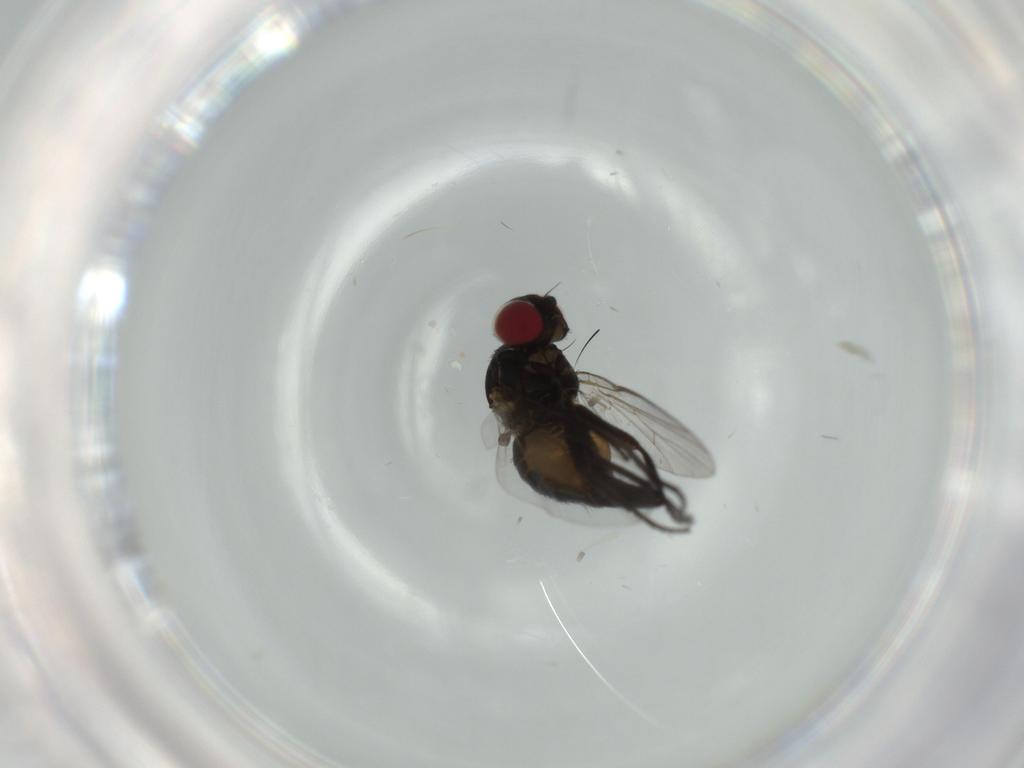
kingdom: Animalia
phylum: Arthropoda
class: Insecta
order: Diptera
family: Agromyzidae
